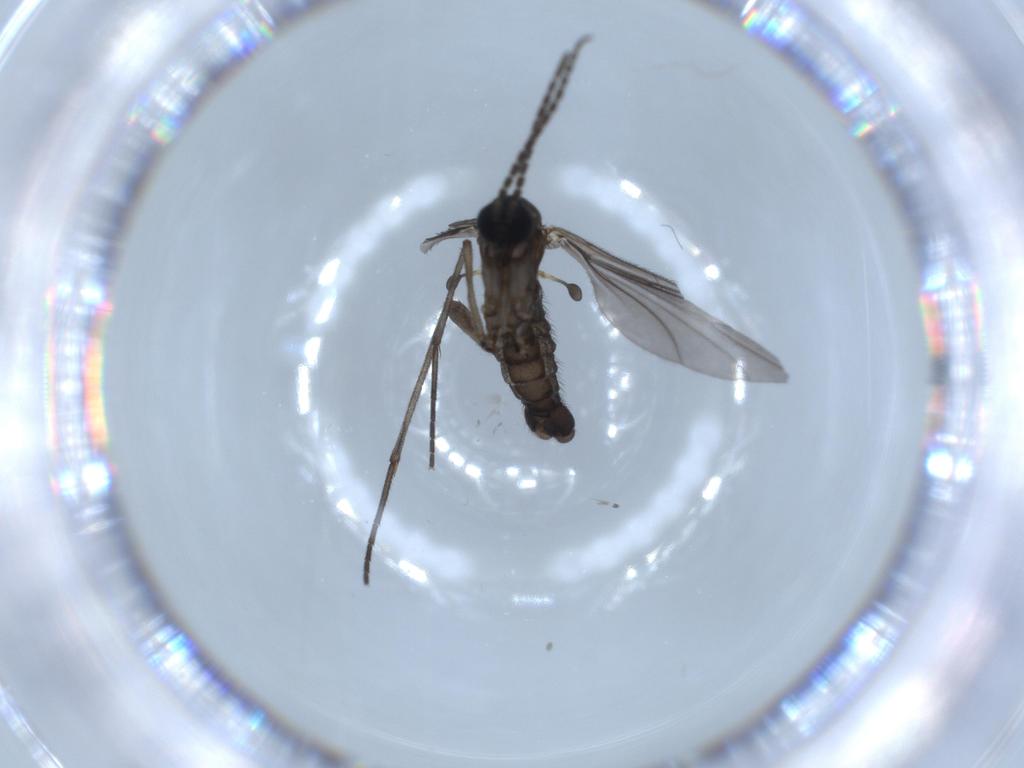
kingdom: Animalia
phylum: Arthropoda
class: Insecta
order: Diptera
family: Sciaridae
